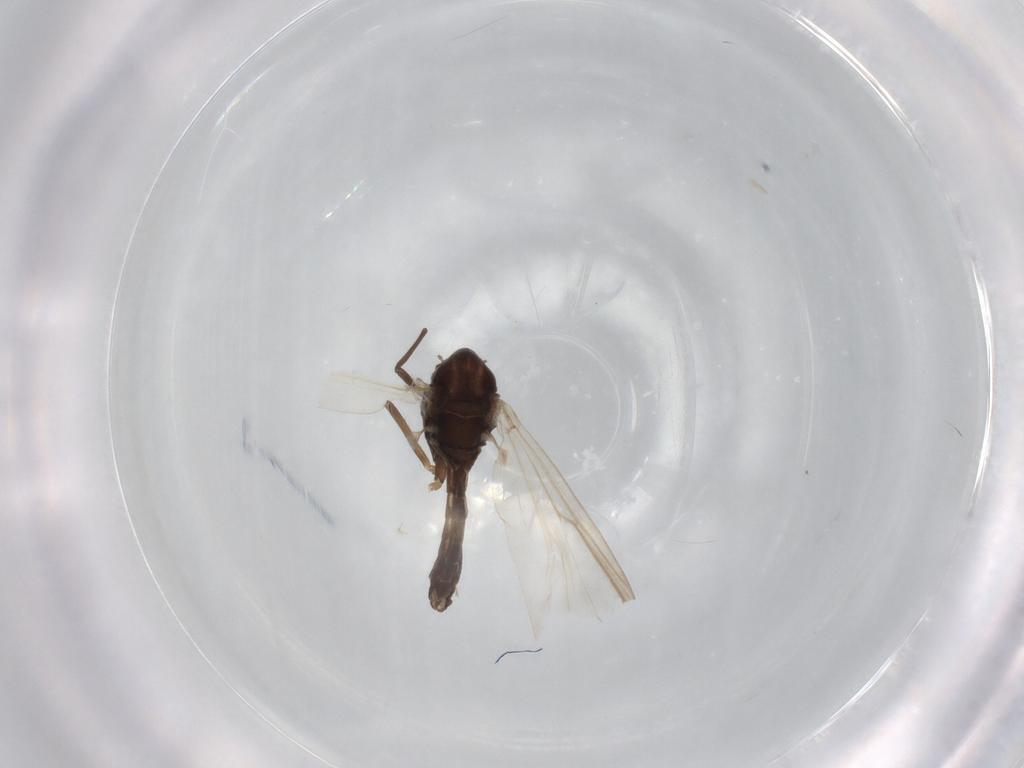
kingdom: Animalia
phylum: Arthropoda
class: Insecta
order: Diptera
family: Chironomidae
